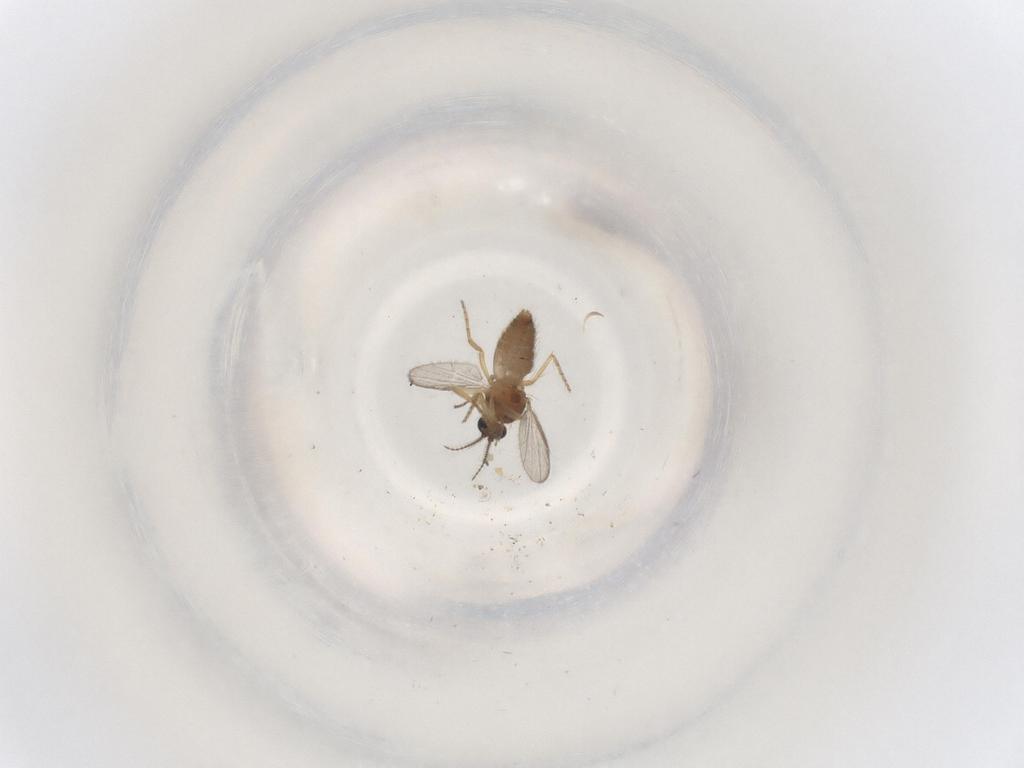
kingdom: Animalia
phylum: Arthropoda
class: Insecta
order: Diptera
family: Ceratopogonidae
